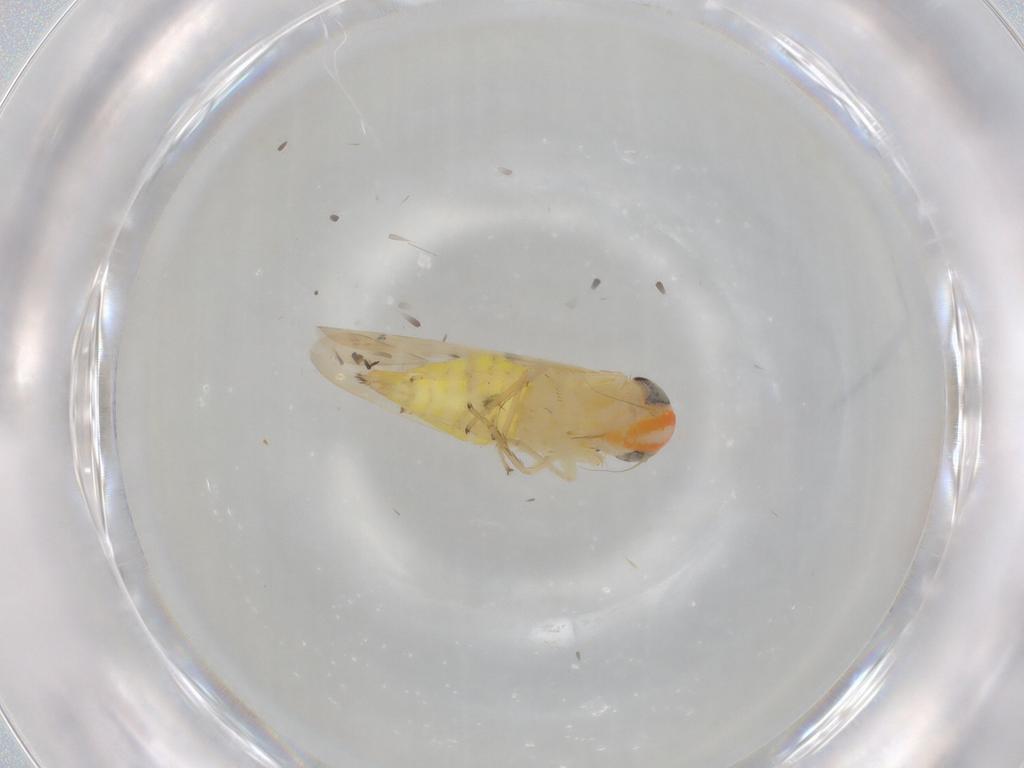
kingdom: Animalia
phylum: Arthropoda
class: Insecta
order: Hemiptera
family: Cicadellidae
